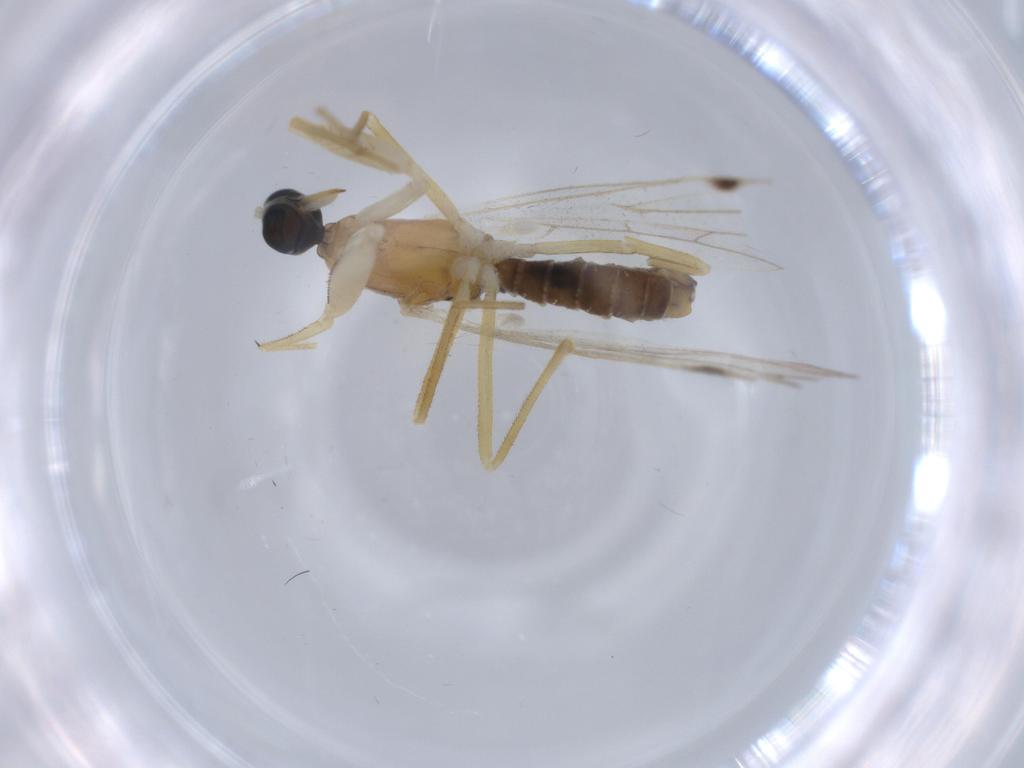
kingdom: Animalia
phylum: Arthropoda
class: Insecta
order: Diptera
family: Empididae
